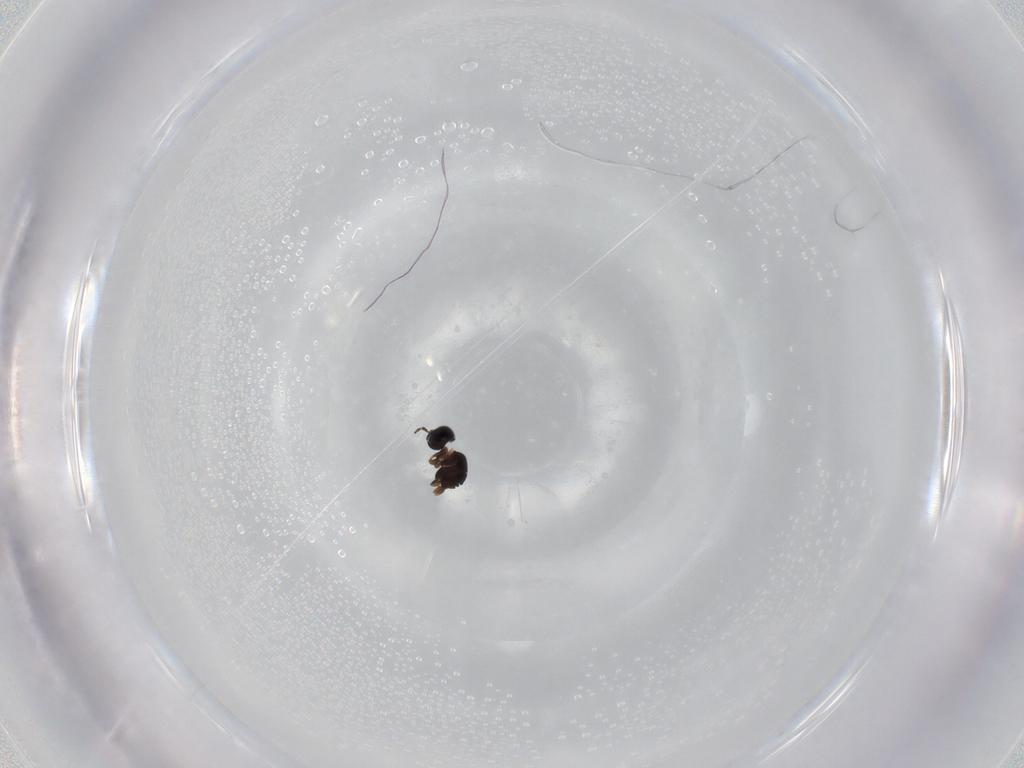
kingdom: Animalia
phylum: Arthropoda
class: Insecta
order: Hymenoptera
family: Scelionidae
